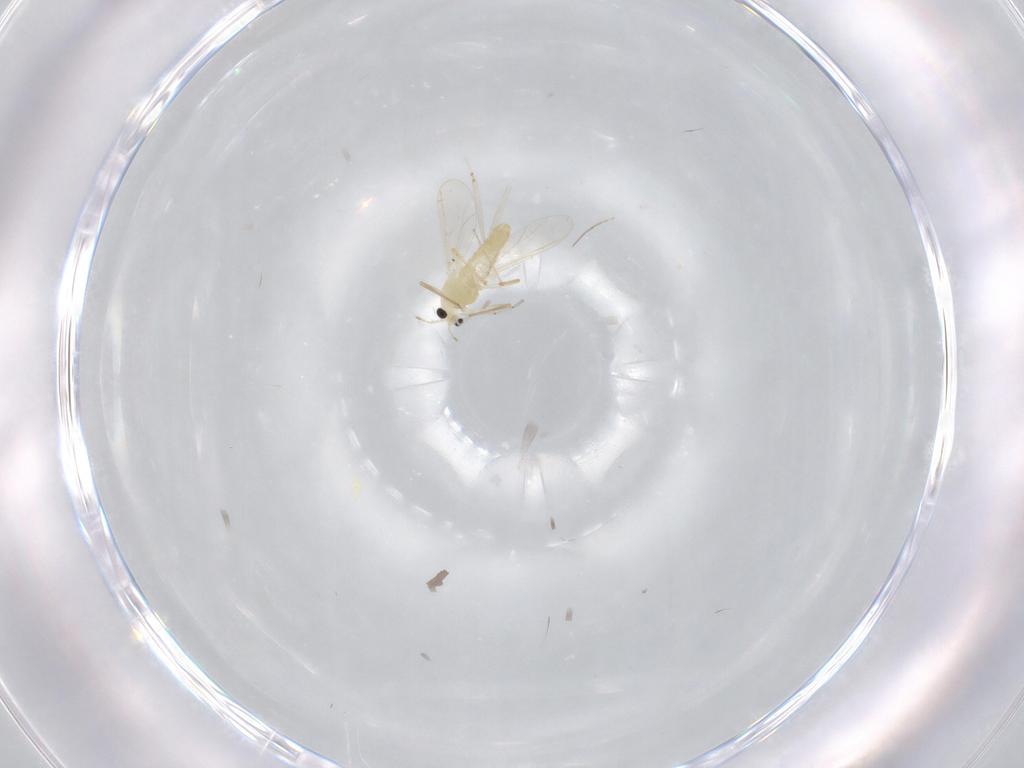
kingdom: Animalia
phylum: Arthropoda
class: Insecta
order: Diptera
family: Chironomidae
